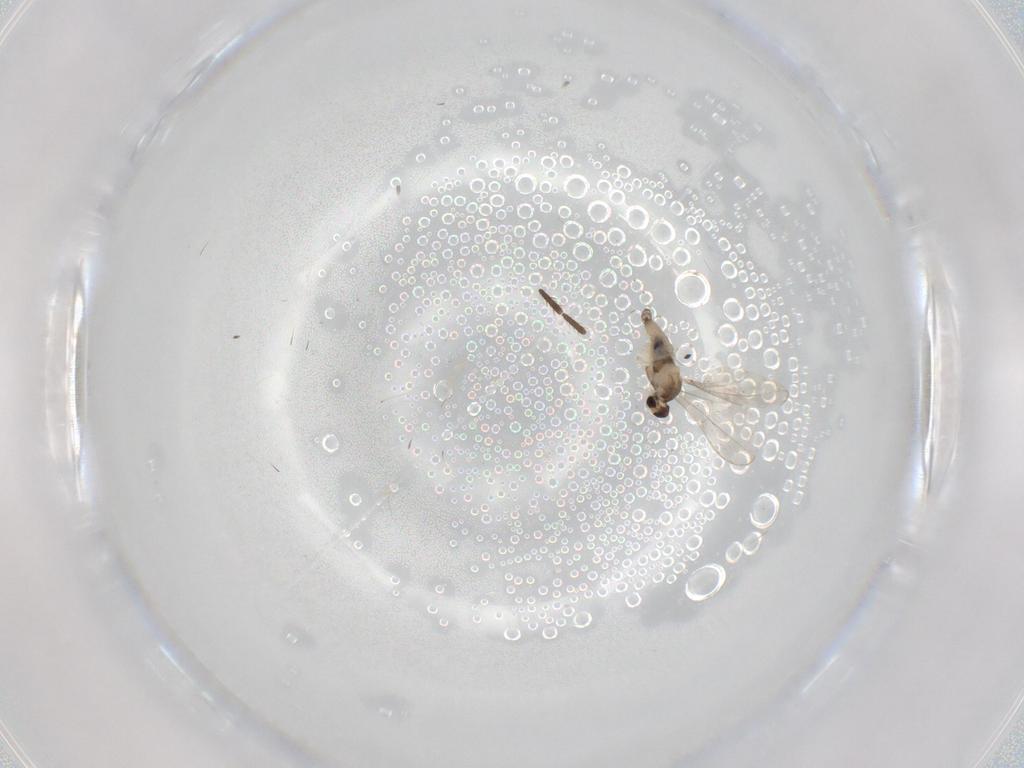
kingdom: Animalia
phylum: Arthropoda
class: Insecta
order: Diptera
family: Cecidomyiidae
